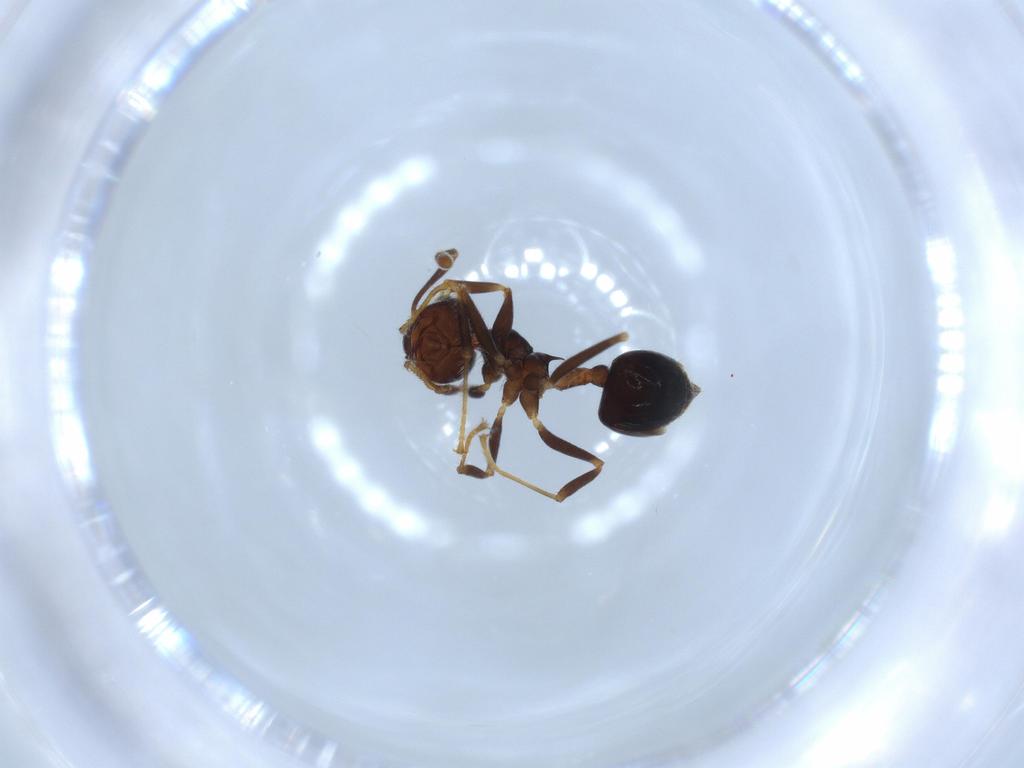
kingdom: Animalia
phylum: Arthropoda
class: Insecta
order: Hymenoptera
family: Formicidae
